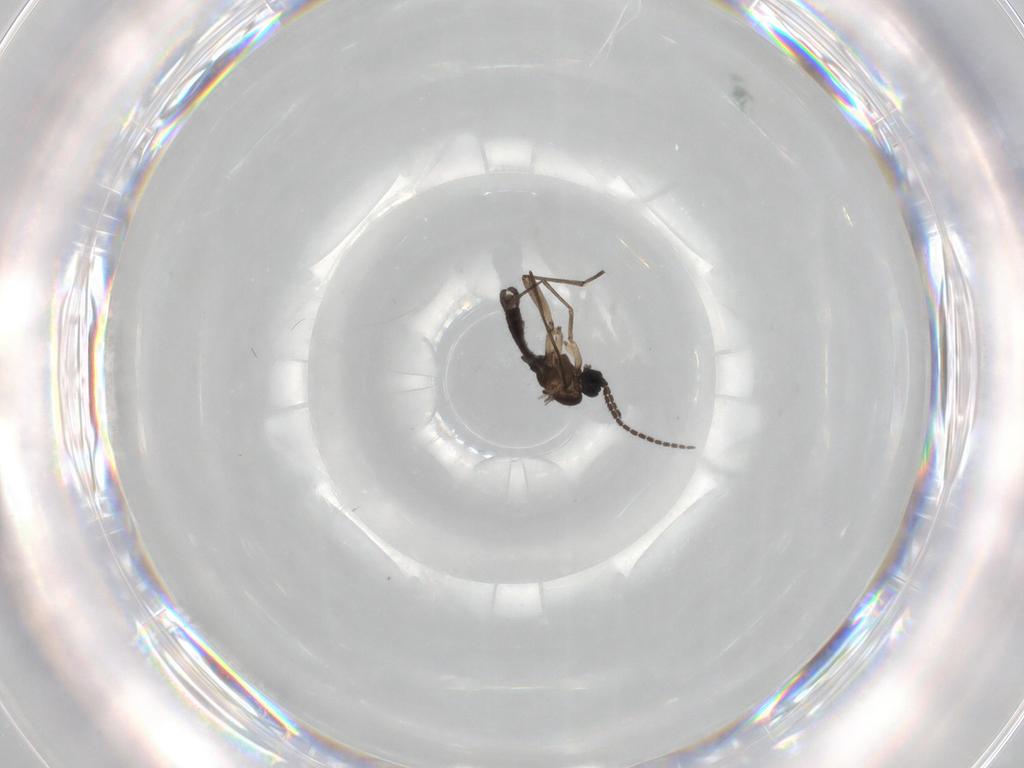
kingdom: Animalia
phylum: Arthropoda
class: Insecta
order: Diptera
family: Sciaridae
